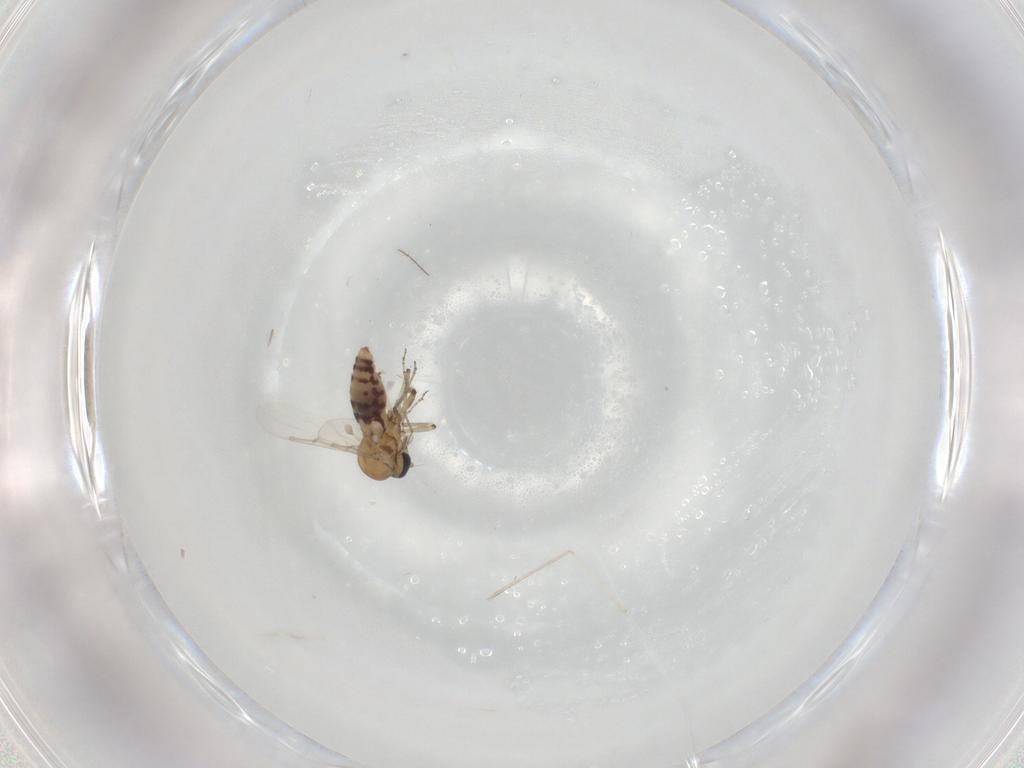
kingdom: Animalia
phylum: Arthropoda
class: Insecta
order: Diptera
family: Ceratopogonidae
